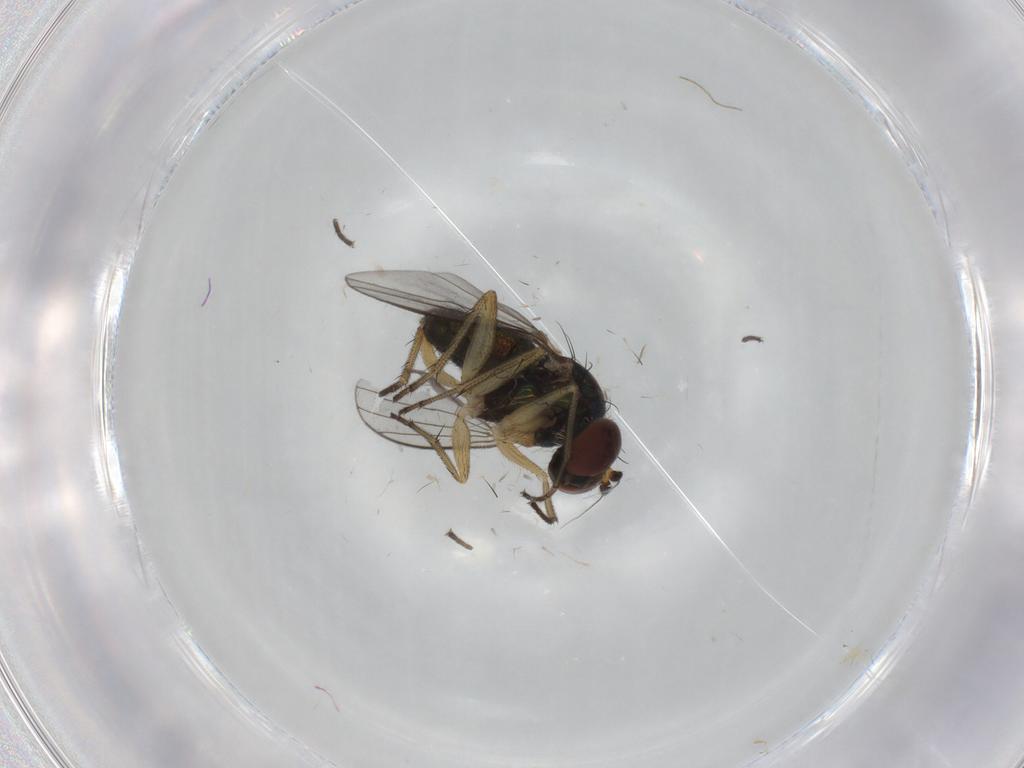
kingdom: Animalia
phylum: Arthropoda
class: Insecta
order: Diptera
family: Dolichopodidae
